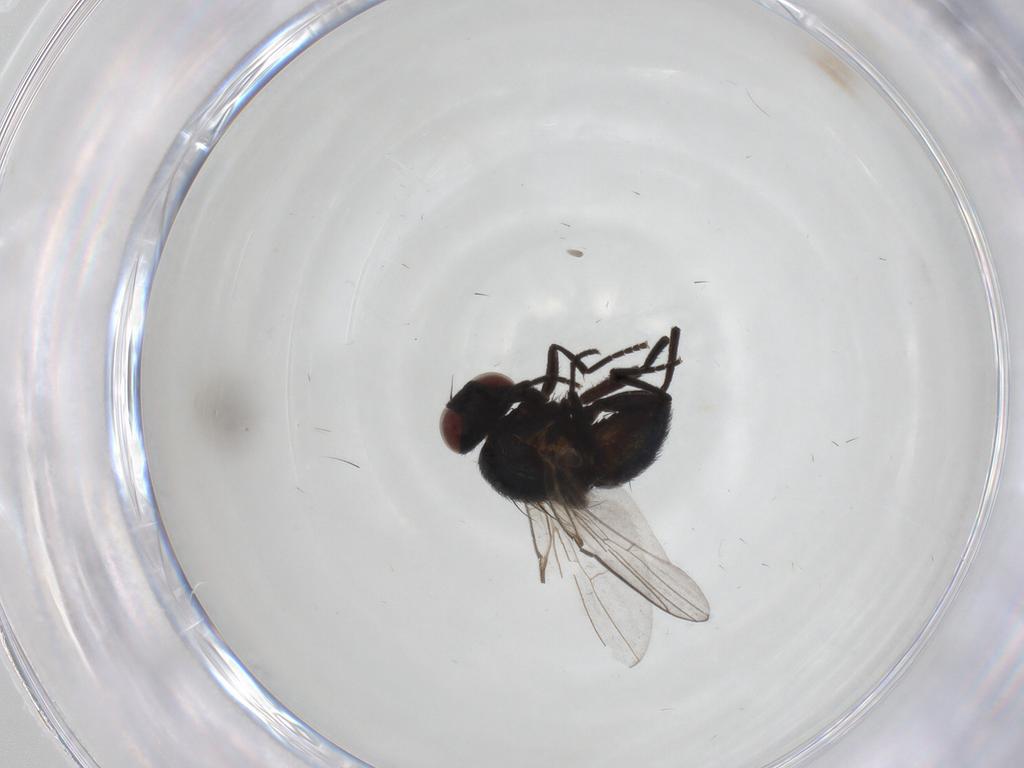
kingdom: Animalia
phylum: Arthropoda
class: Insecta
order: Diptera
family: Agromyzidae
